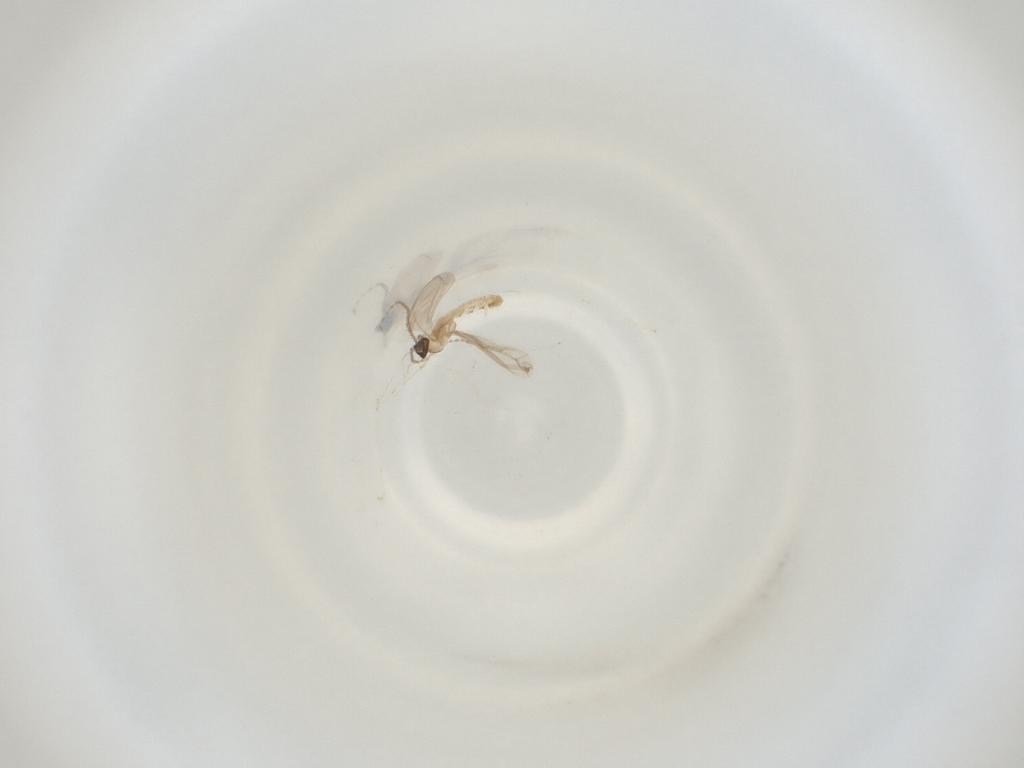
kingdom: Animalia
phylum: Arthropoda
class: Insecta
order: Diptera
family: Cecidomyiidae
